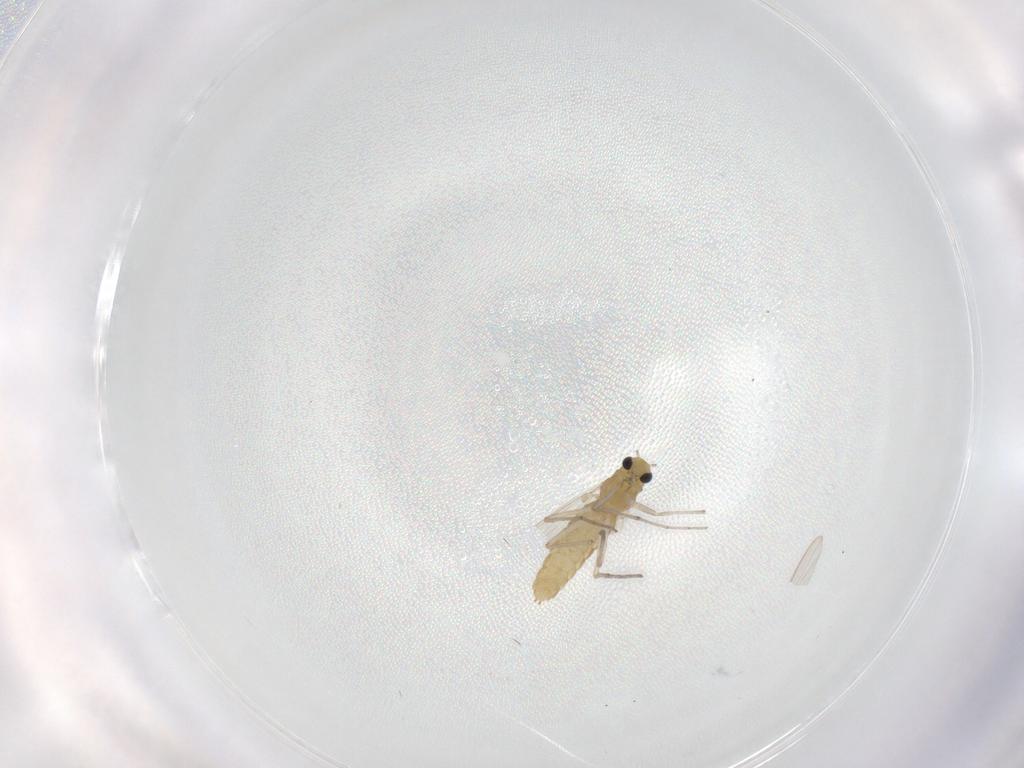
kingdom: Animalia
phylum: Arthropoda
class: Insecta
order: Diptera
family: Chironomidae
